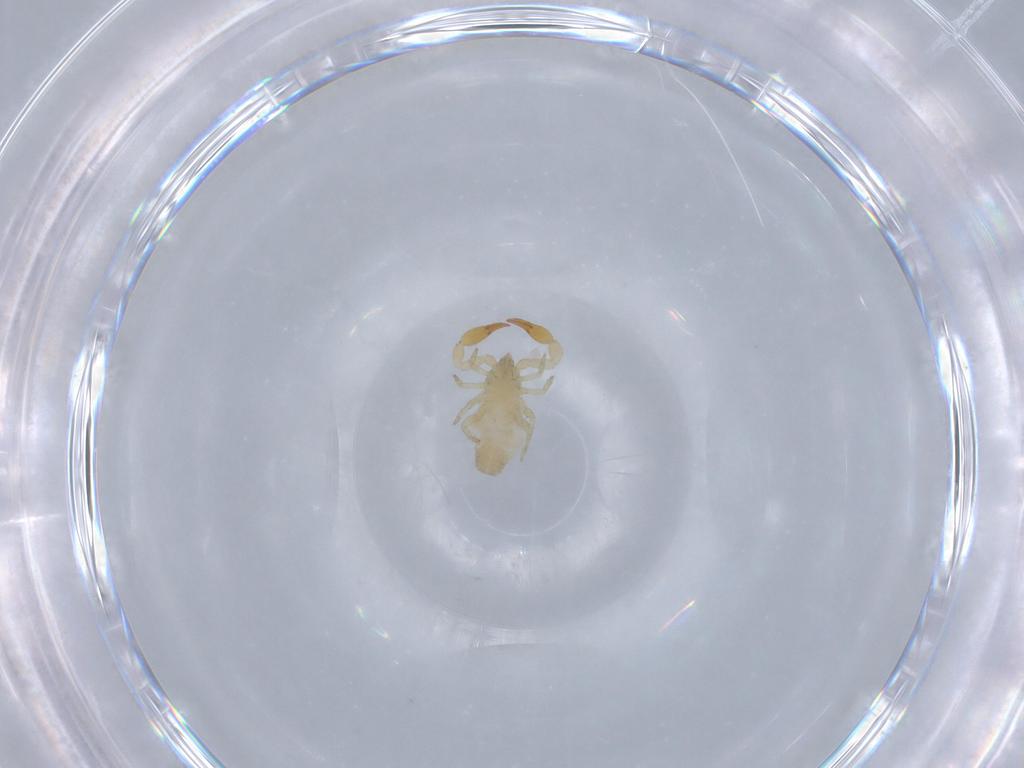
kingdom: Animalia
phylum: Arthropoda
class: Arachnida
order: Pseudoscorpiones
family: Withiidae
